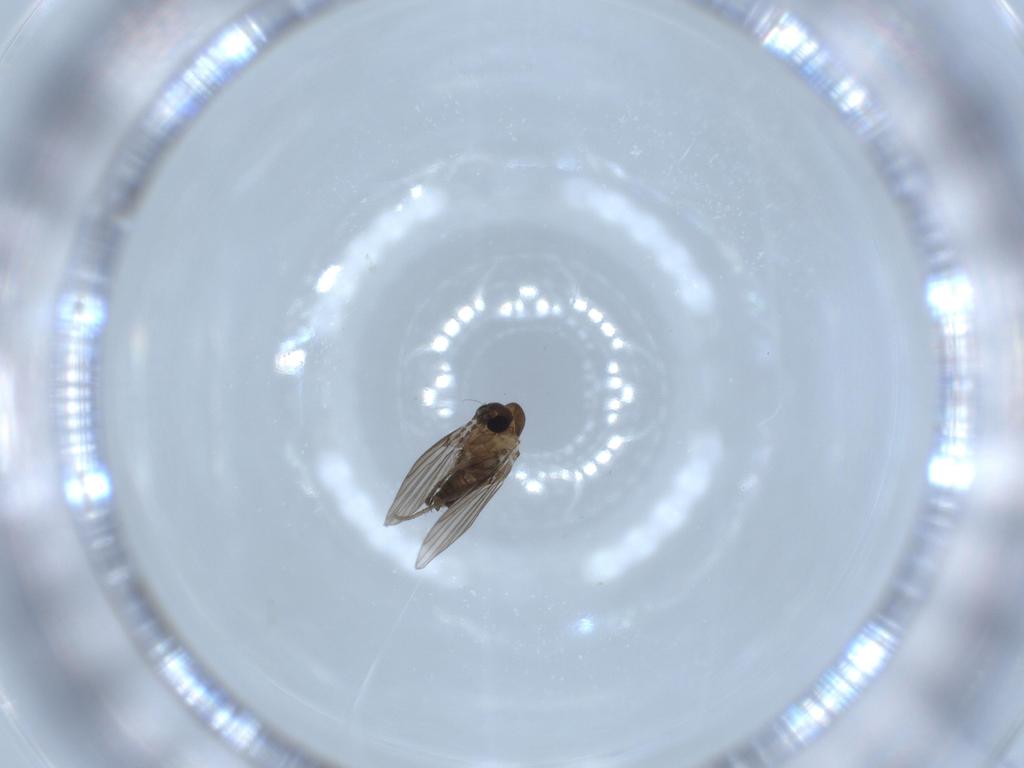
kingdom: Animalia
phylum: Arthropoda
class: Insecta
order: Diptera
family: Psychodidae
